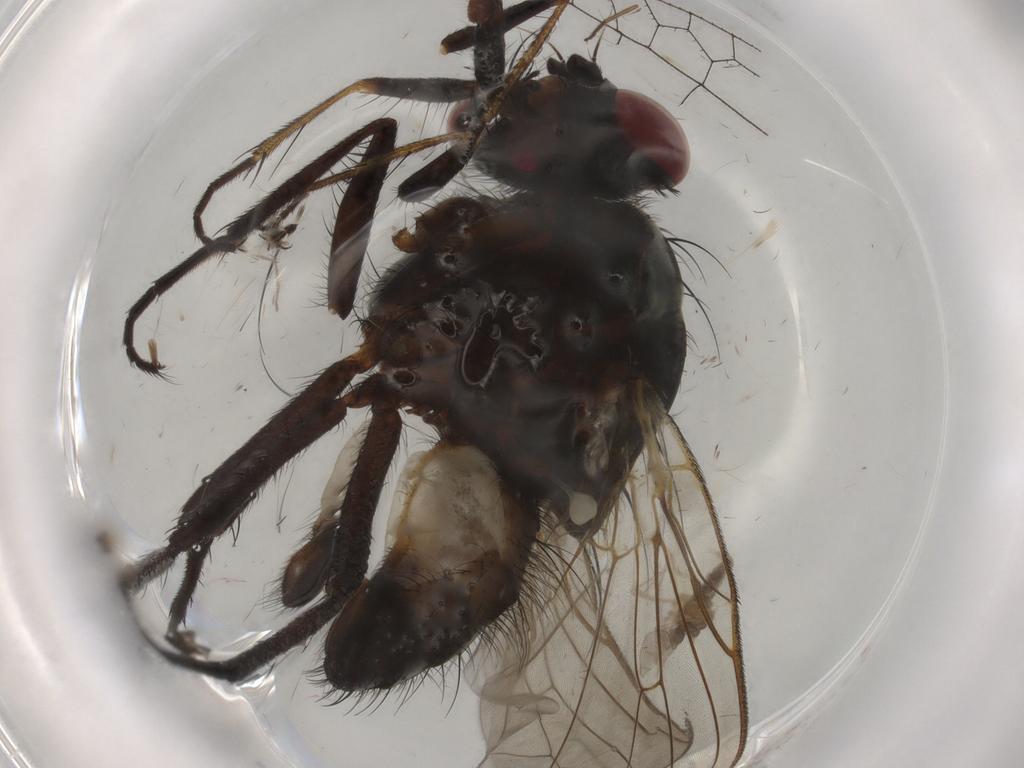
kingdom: Animalia
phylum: Arthropoda
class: Insecta
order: Diptera
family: Anthomyiidae
